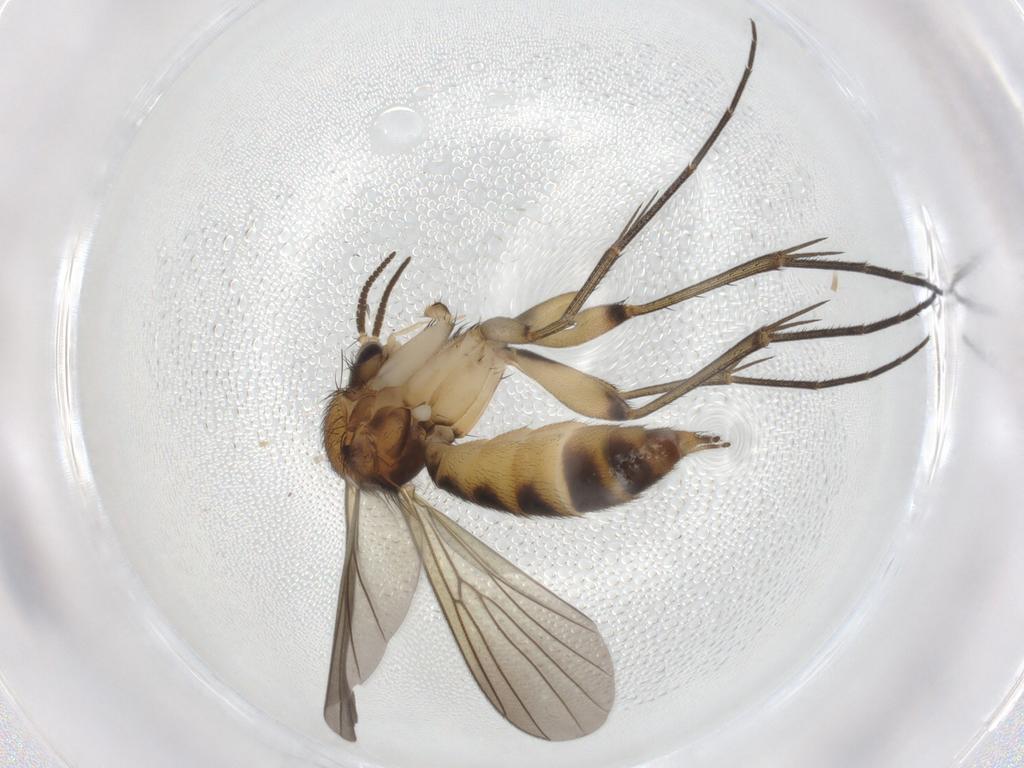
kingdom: Animalia
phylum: Arthropoda
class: Insecta
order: Diptera
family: Mycetophilidae
